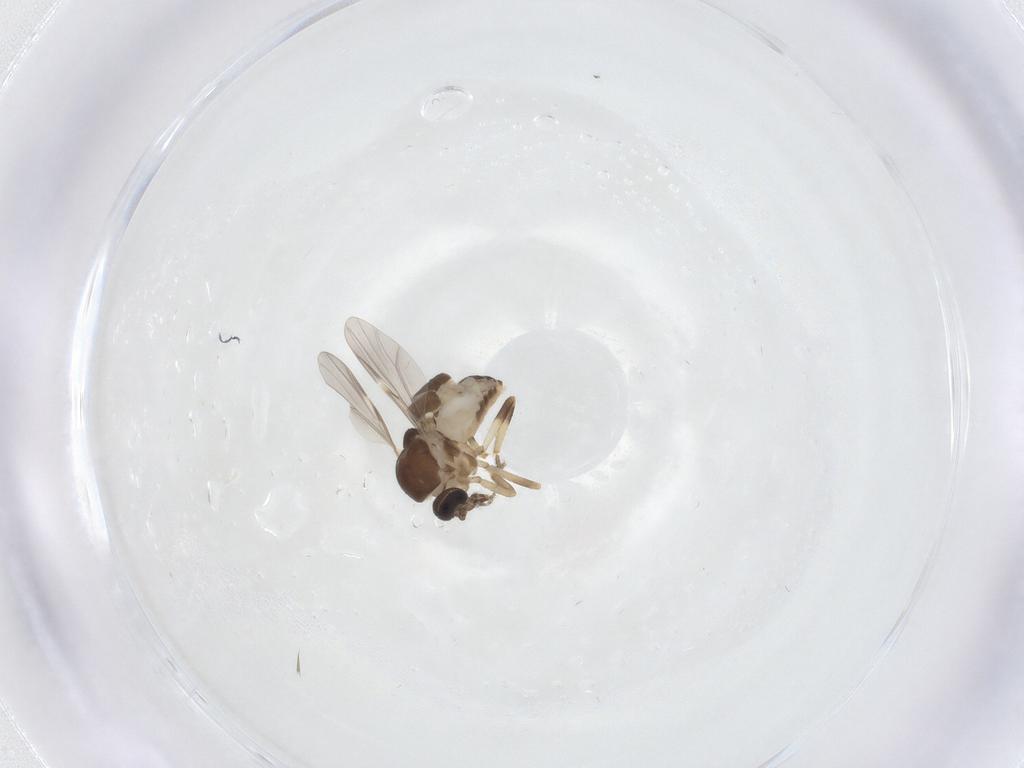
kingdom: Animalia
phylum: Arthropoda
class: Insecta
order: Diptera
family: Ceratopogonidae
